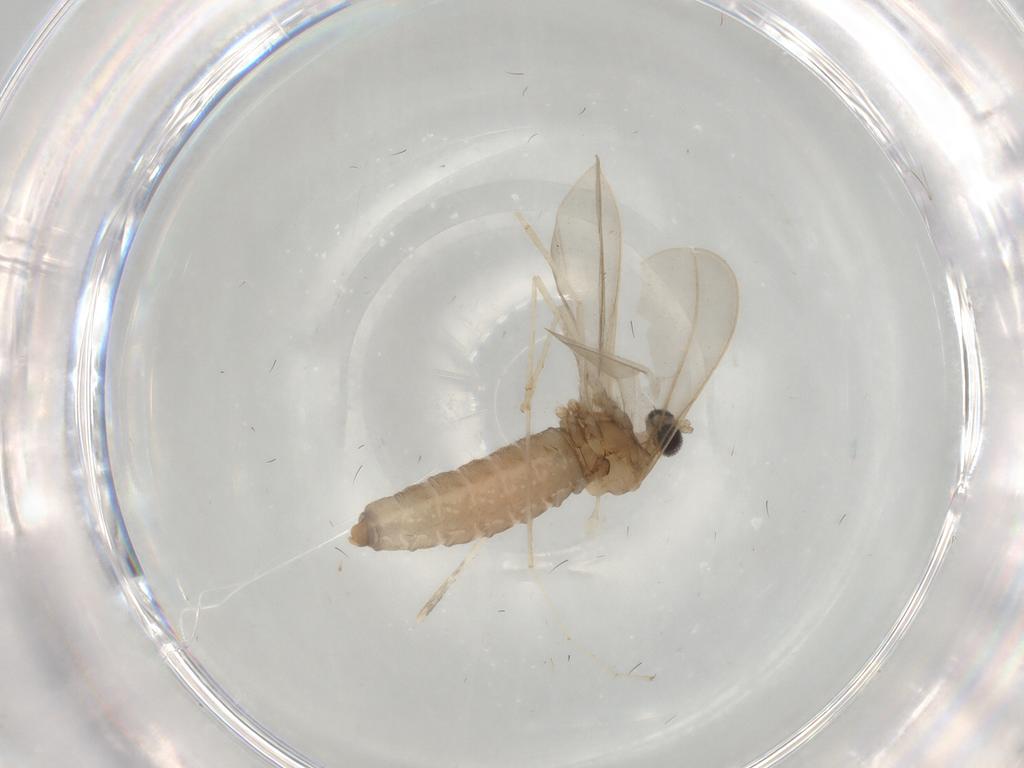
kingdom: Animalia
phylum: Arthropoda
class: Insecta
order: Diptera
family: Cecidomyiidae
